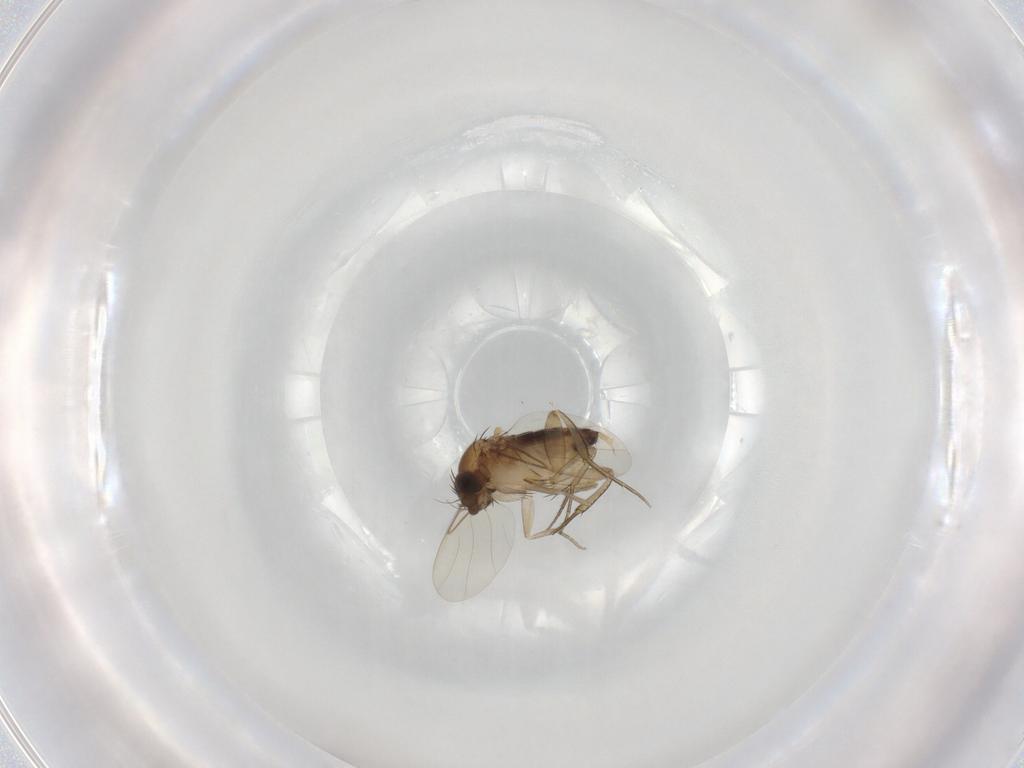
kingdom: Animalia
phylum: Arthropoda
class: Insecta
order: Diptera
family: Phoridae
